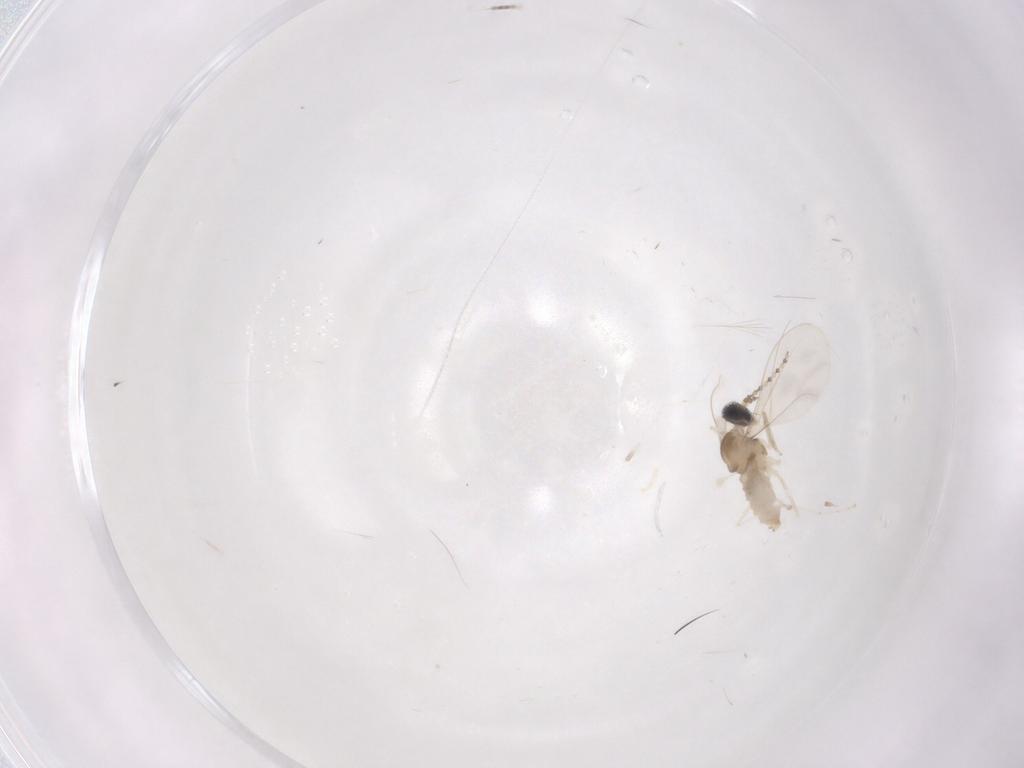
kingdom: Animalia
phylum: Arthropoda
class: Insecta
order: Diptera
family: Cecidomyiidae
